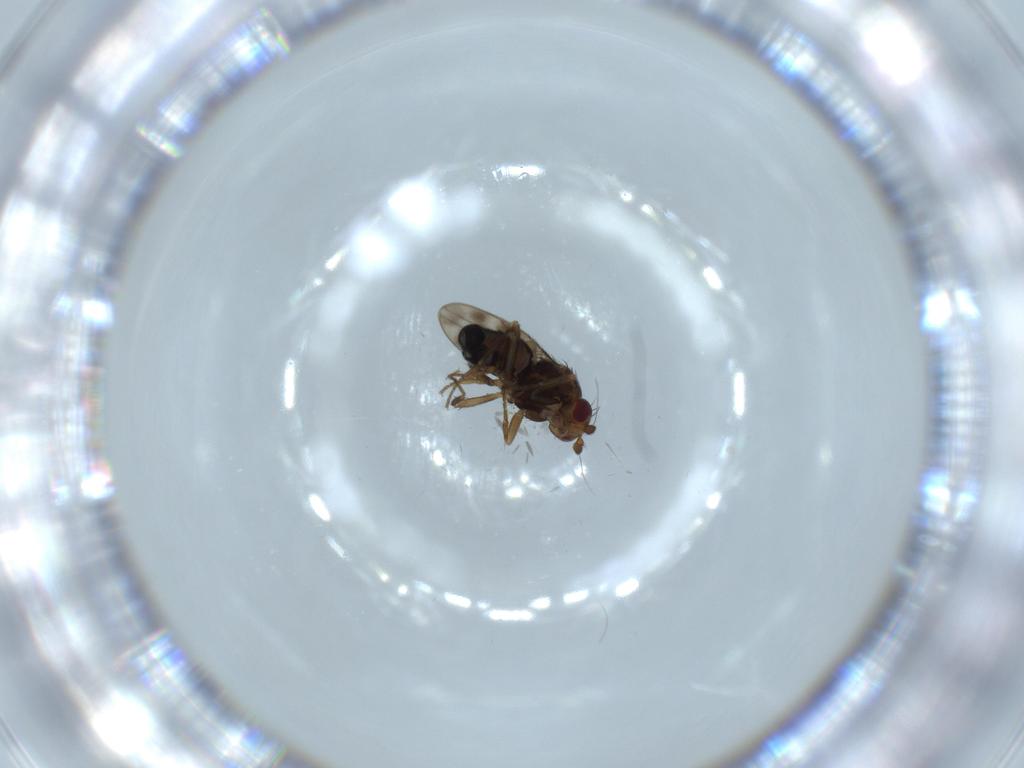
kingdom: Animalia
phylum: Arthropoda
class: Insecta
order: Diptera
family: Sphaeroceridae
